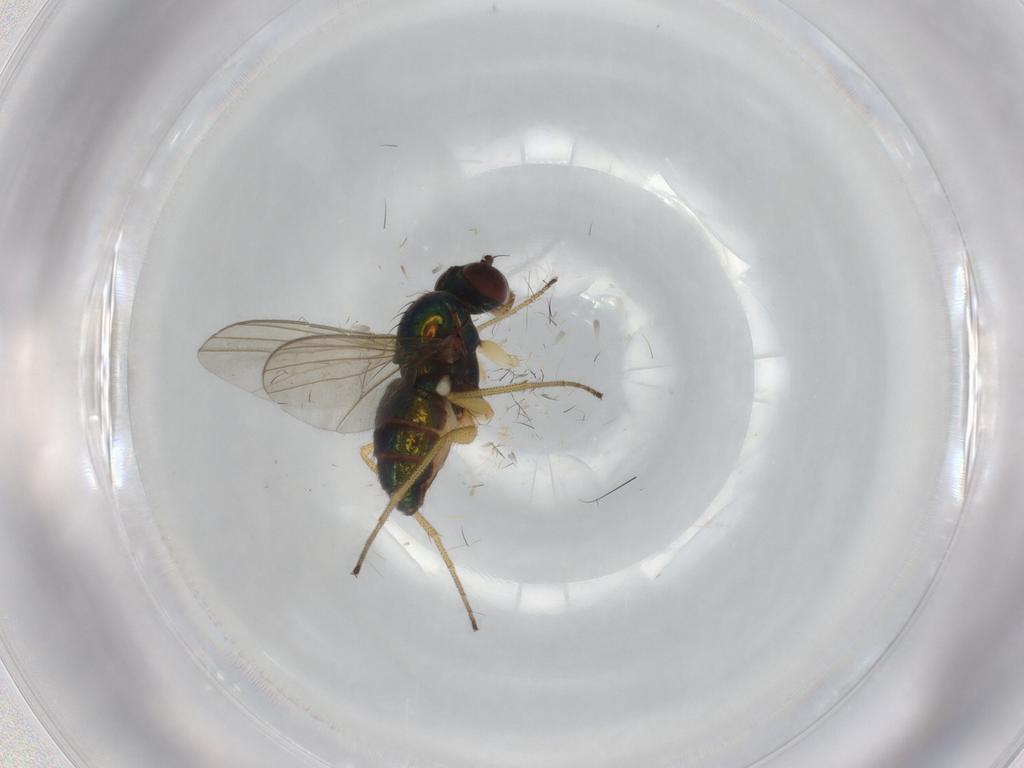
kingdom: Animalia
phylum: Arthropoda
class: Insecta
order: Diptera
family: Dolichopodidae
